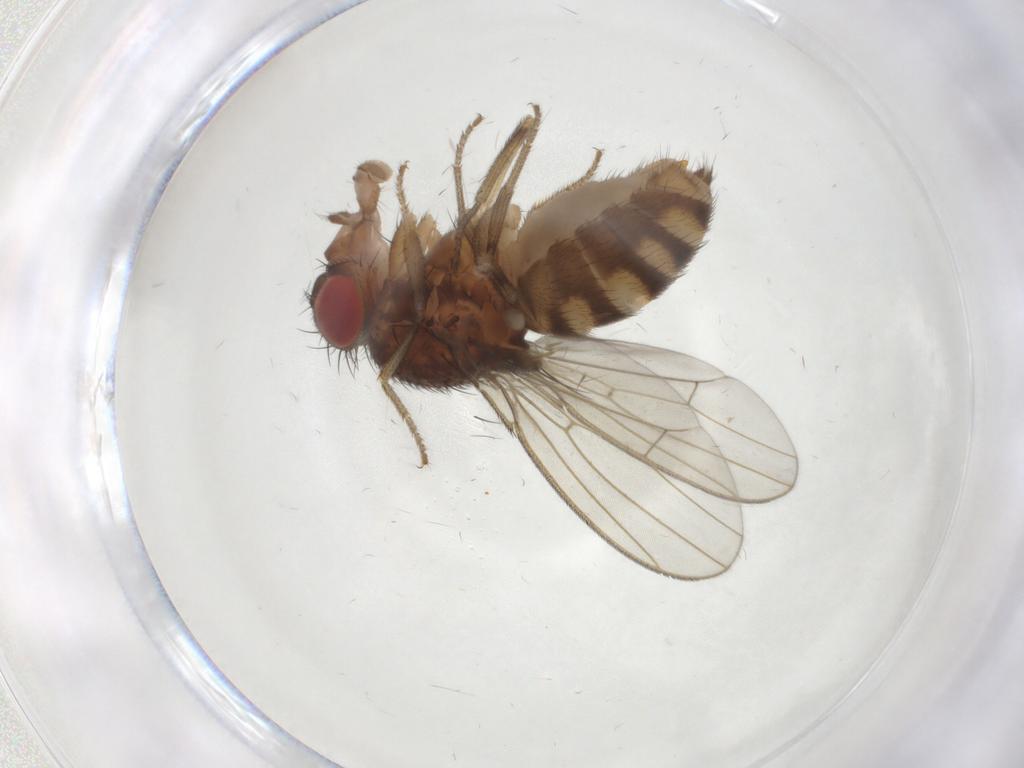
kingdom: Animalia
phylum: Arthropoda
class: Insecta
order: Diptera
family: Drosophilidae
